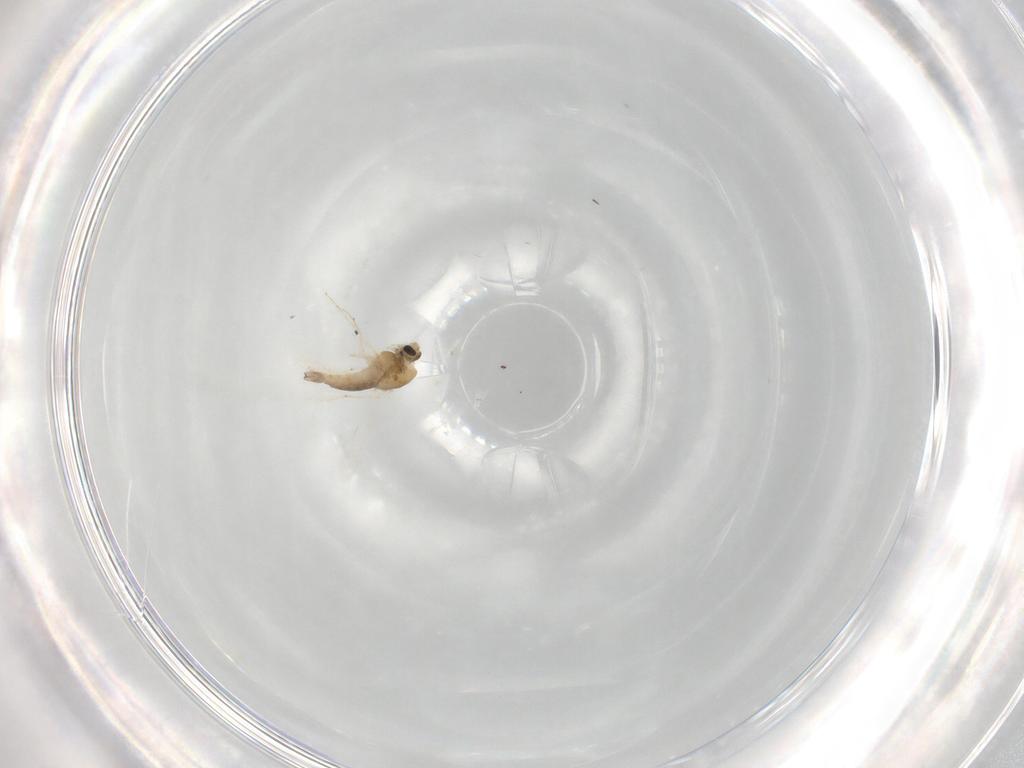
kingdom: Animalia
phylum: Arthropoda
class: Insecta
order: Diptera
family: Chironomidae
